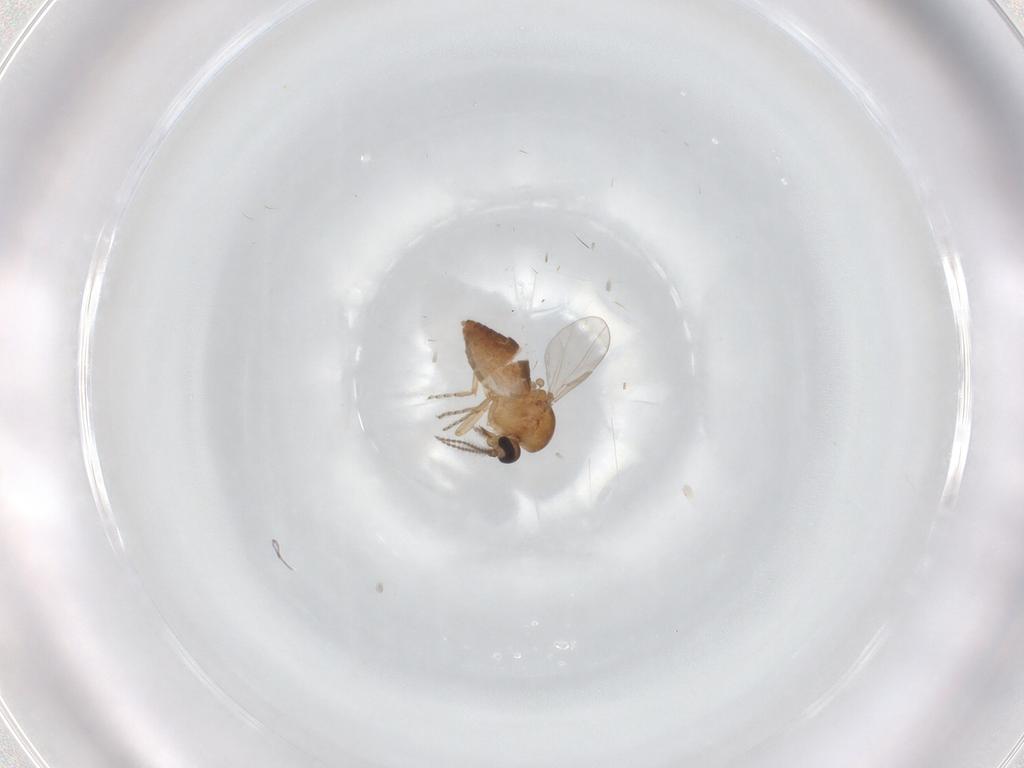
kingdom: Animalia
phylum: Arthropoda
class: Insecta
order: Diptera
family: Ceratopogonidae
